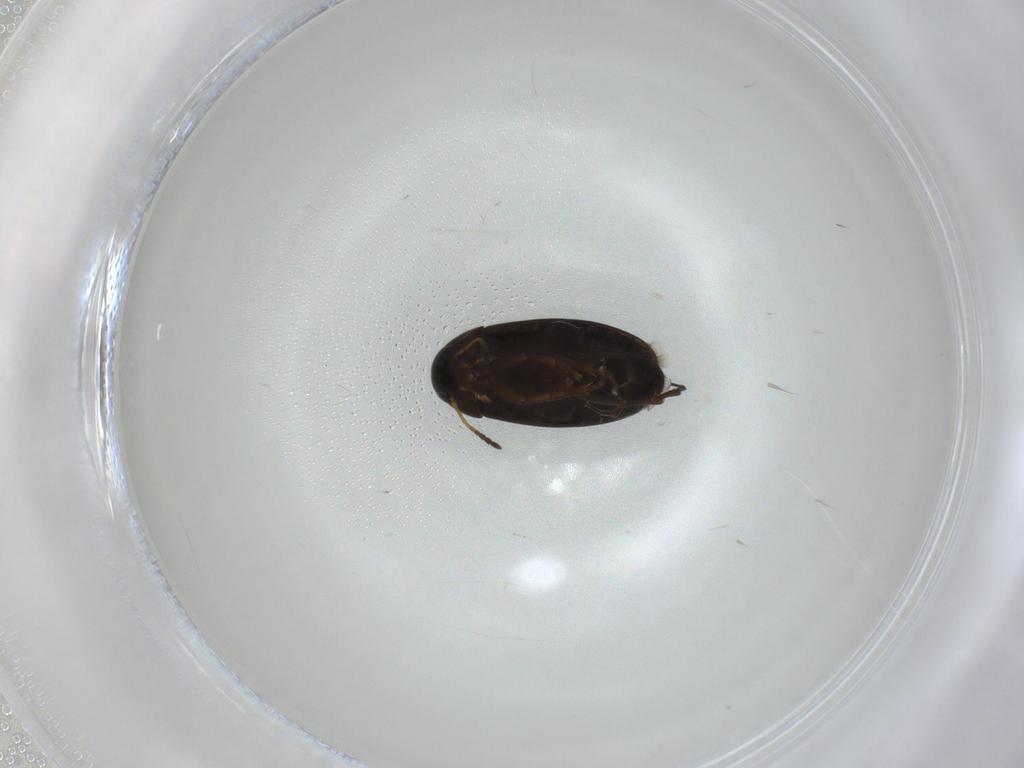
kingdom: Animalia
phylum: Arthropoda
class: Insecta
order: Coleoptera
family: Scraptiidae
